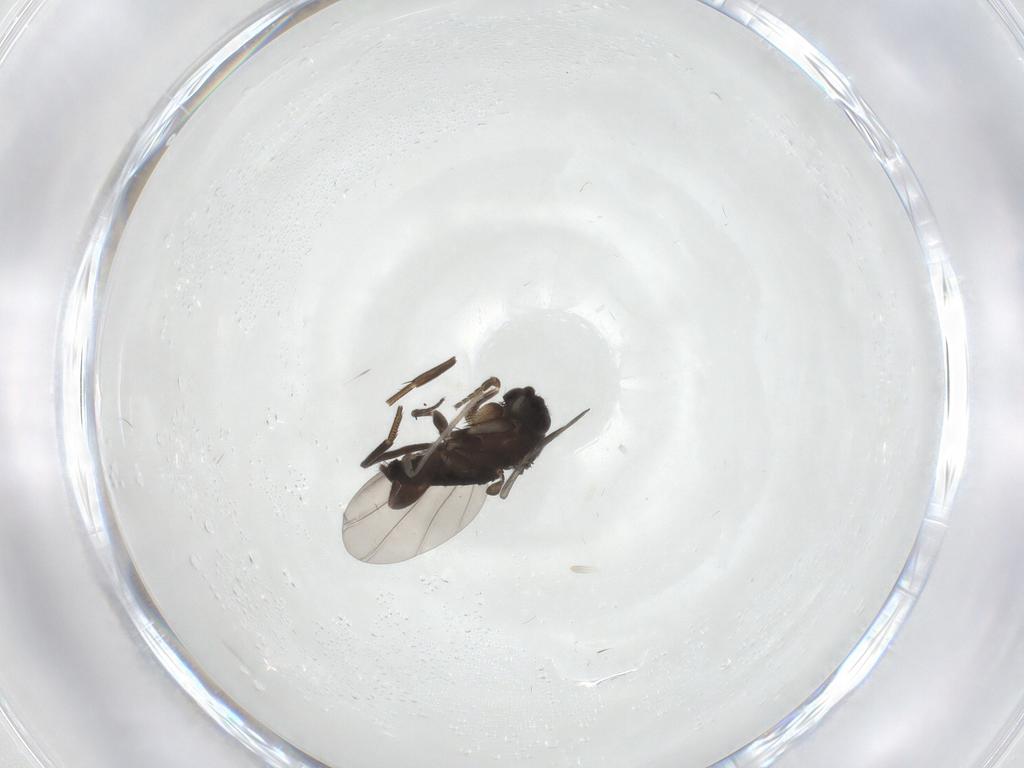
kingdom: Animalia
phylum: Arthropoda
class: Insecta
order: Diptera
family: Phoridae
